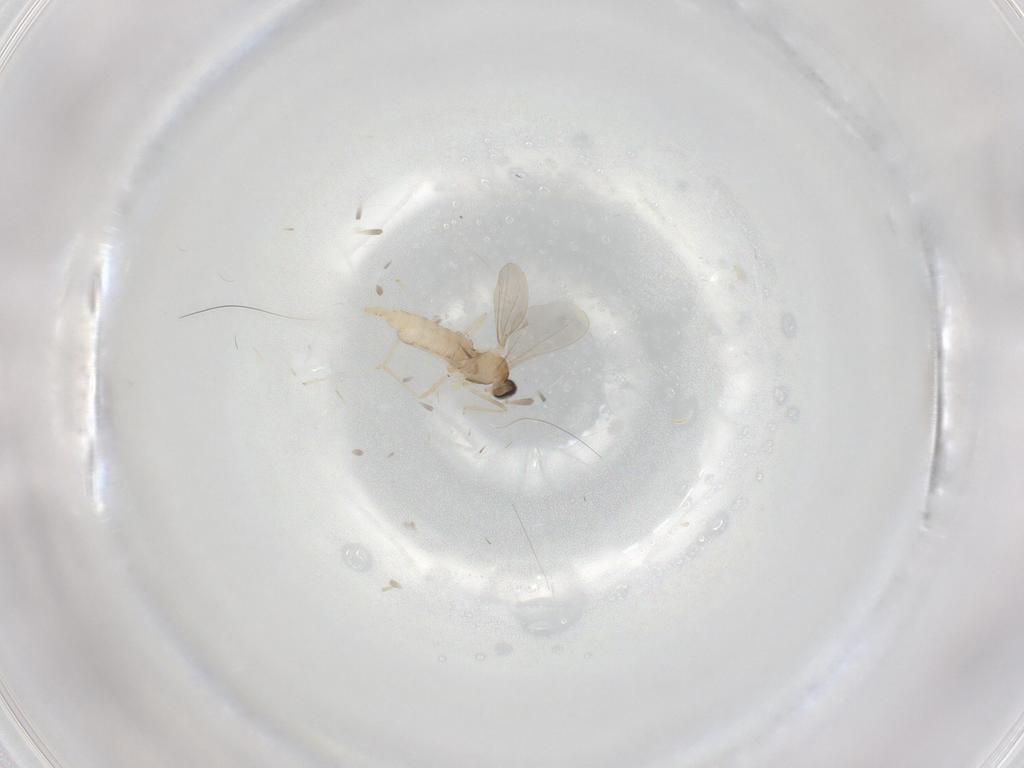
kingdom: Animalia
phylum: Arthropoda
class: Insecta
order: Diptera
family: Cecidomyiidae
